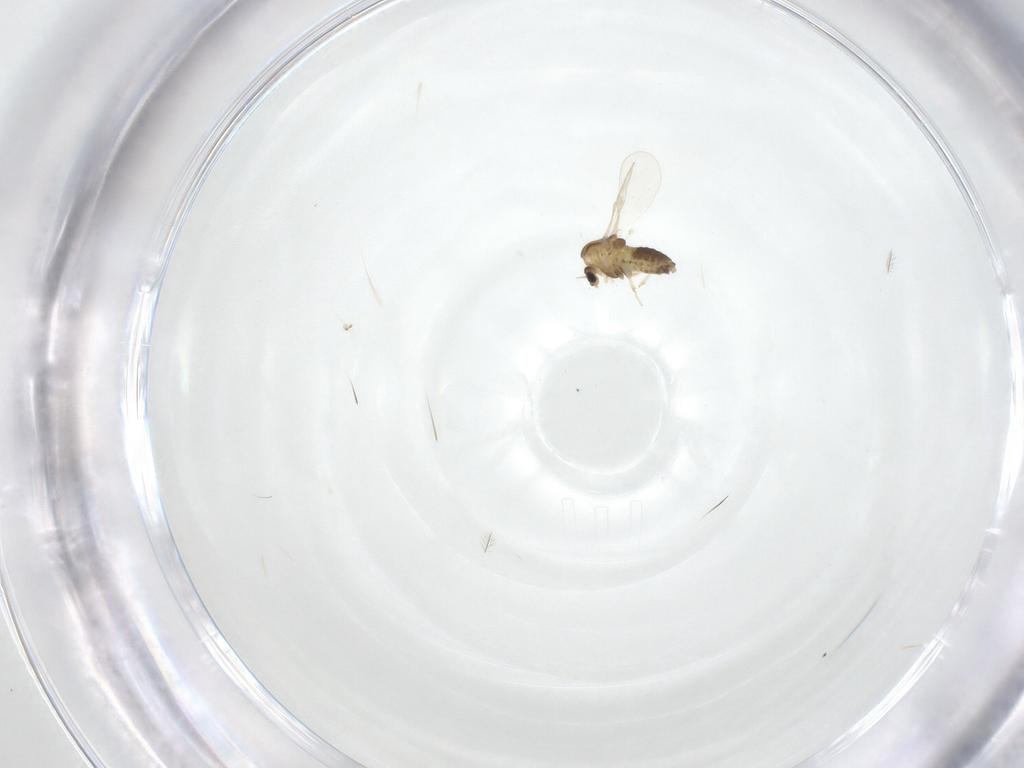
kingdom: Animalia
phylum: Arthropoda
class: Insecta
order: Diptera
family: Chironomidae
